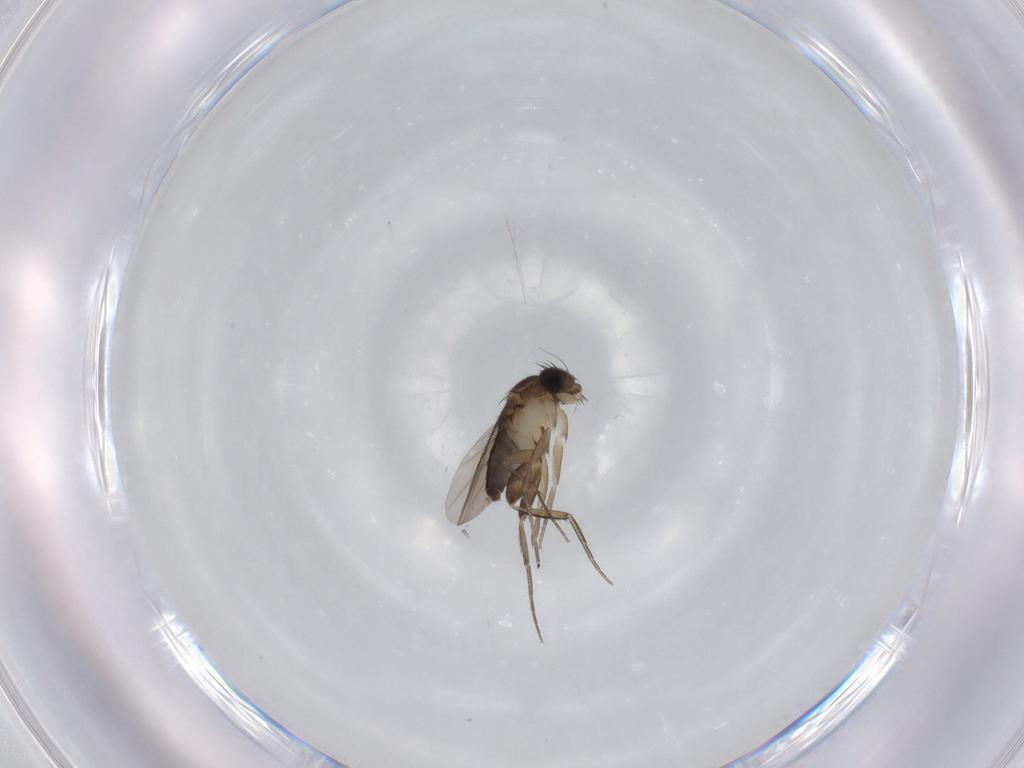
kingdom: Animalia
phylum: Arthropoda
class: Insecta
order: Diptera
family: Phoridae
